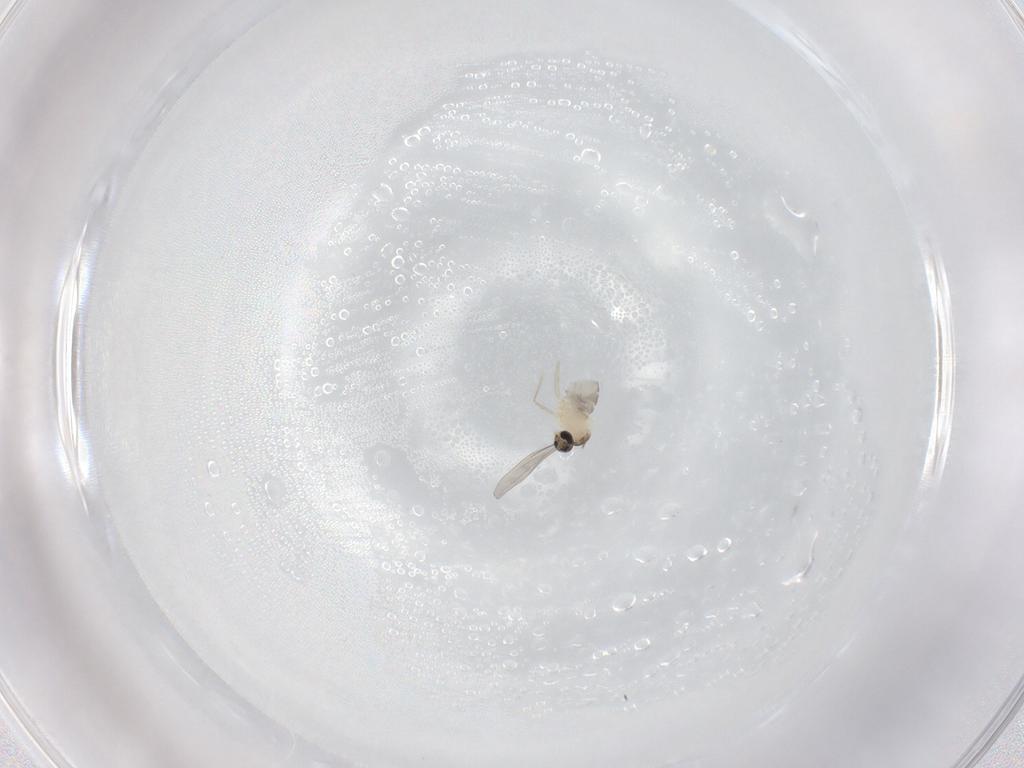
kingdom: Animalia
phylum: Arthropoda
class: Insecta
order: Diptera
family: Cecidomyiidae
